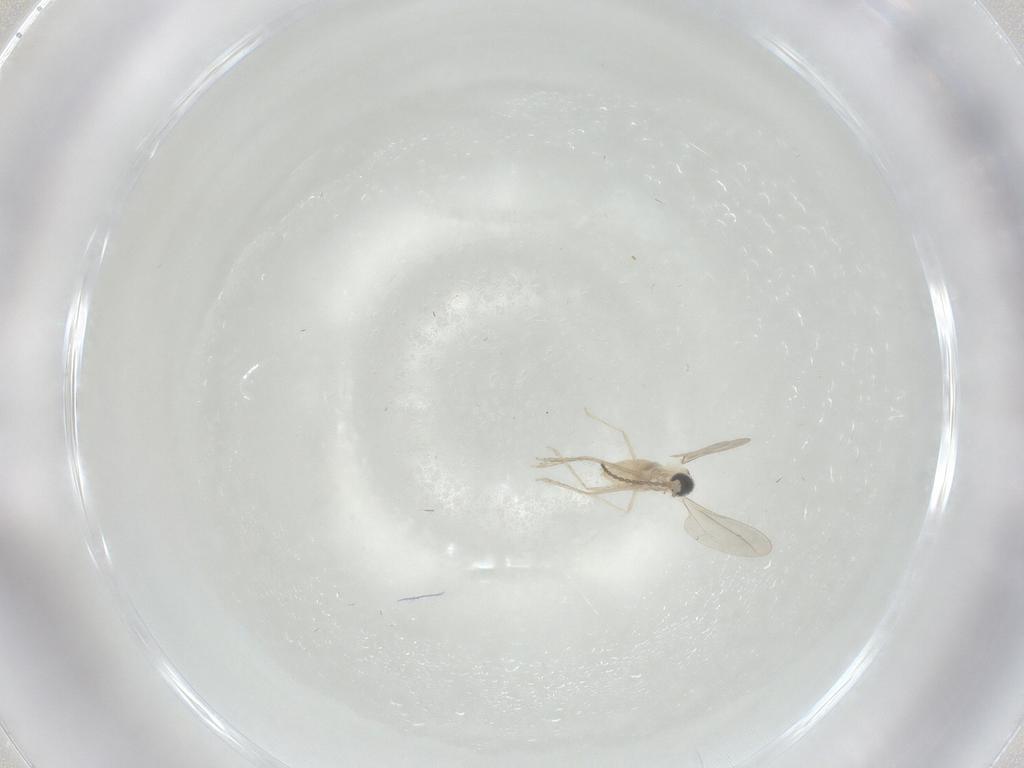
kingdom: Animalia
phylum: Arthropoda
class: Insecta
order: Diptera
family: Cecidomyiidae
